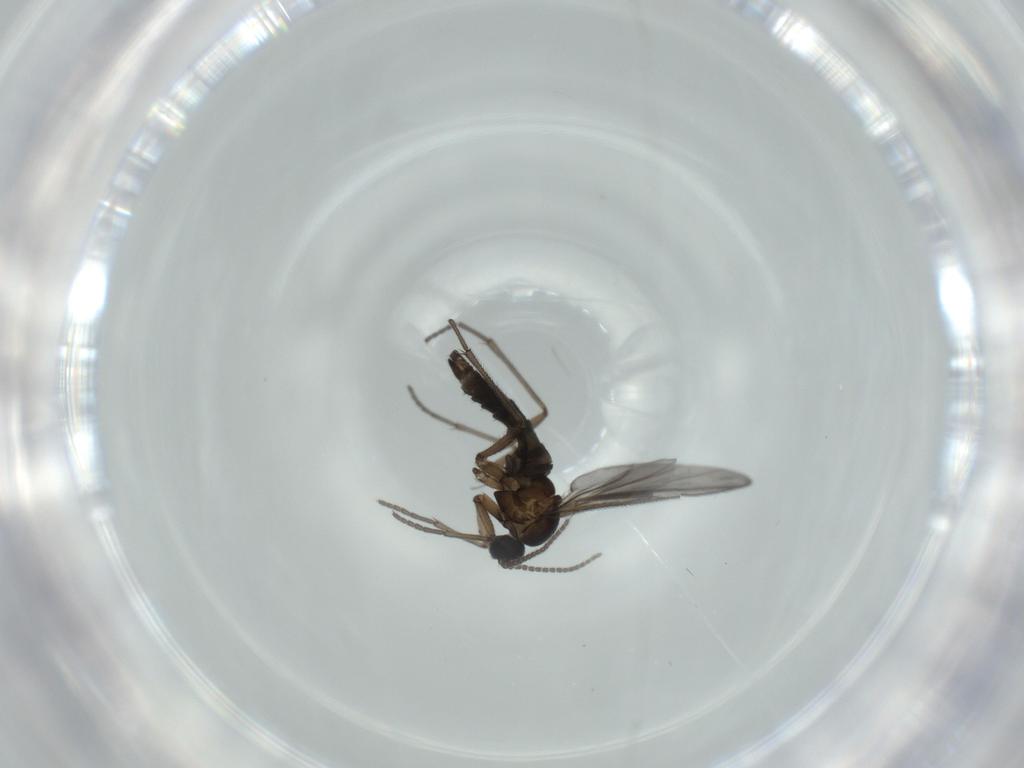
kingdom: Animalia
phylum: Arthropoda
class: Insecta
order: Diptera
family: Sciaridae
